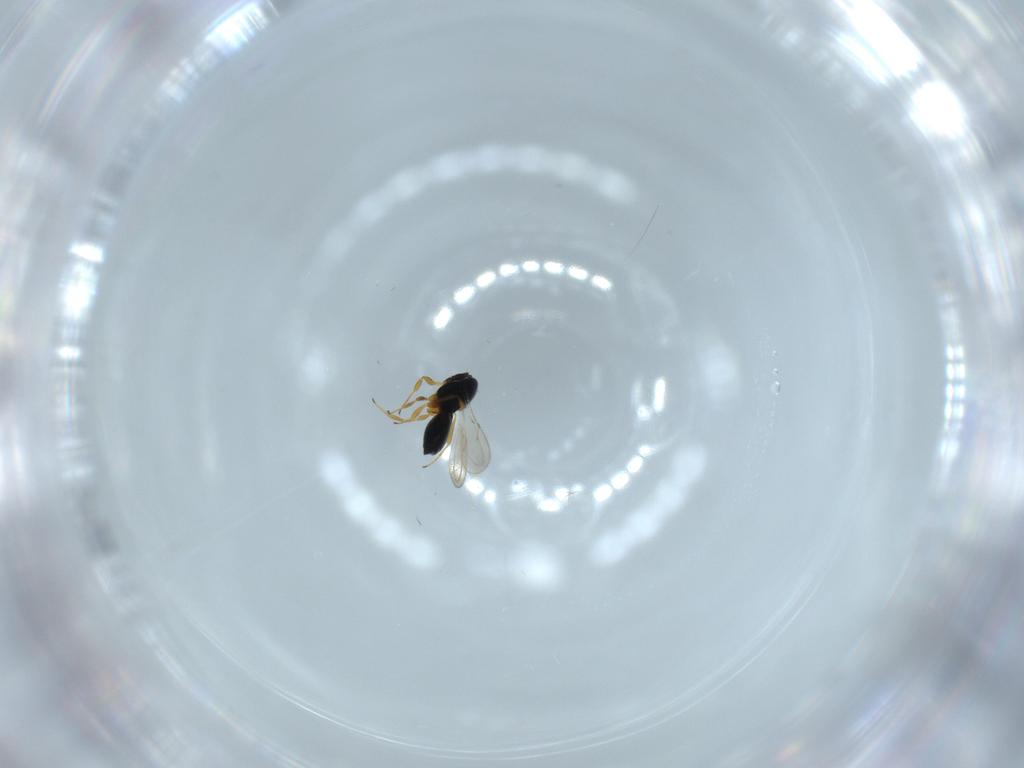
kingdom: Animalia
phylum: Arthropoda
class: Insecta
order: Hymenoptera
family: Scelionidae
